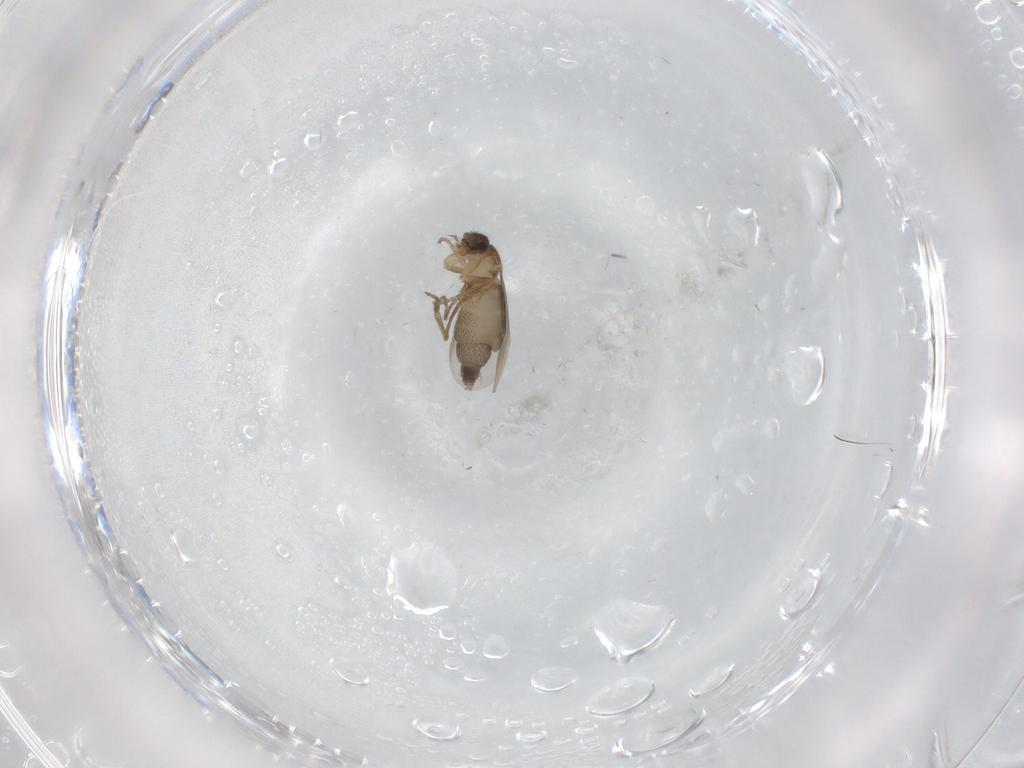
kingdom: Animalia
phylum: Arthropoda
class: Insecta
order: Diptera
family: Phoridae
